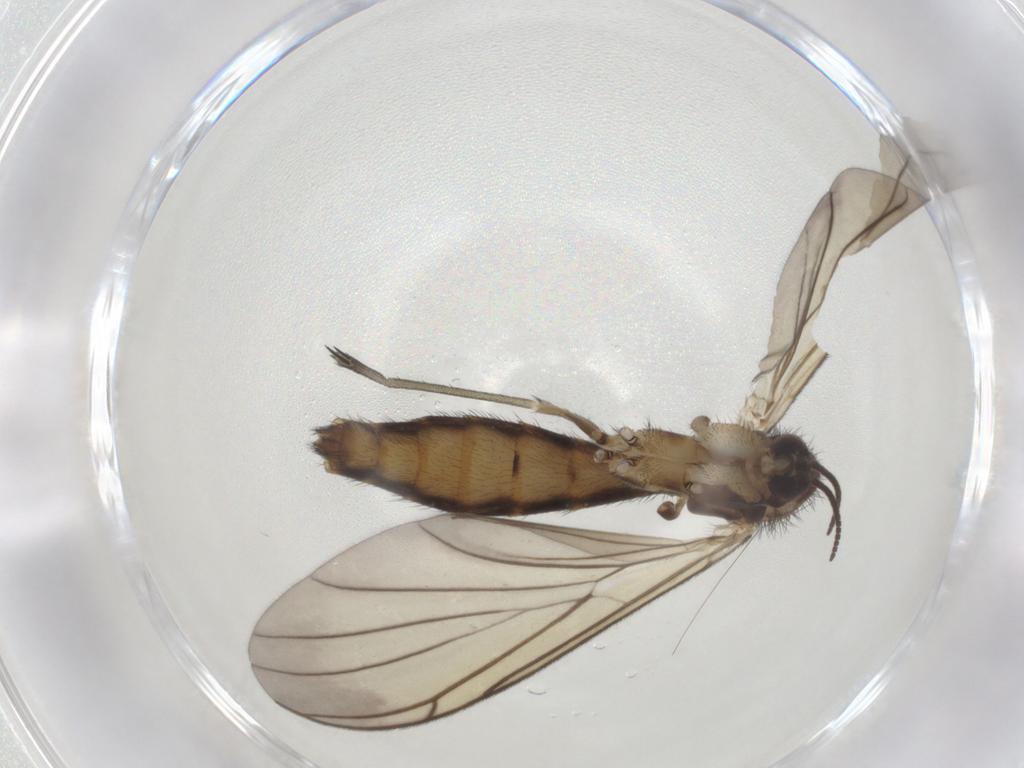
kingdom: Animalia
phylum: Arthropoda
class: Insecta
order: Diptera
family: Keroplatidae
